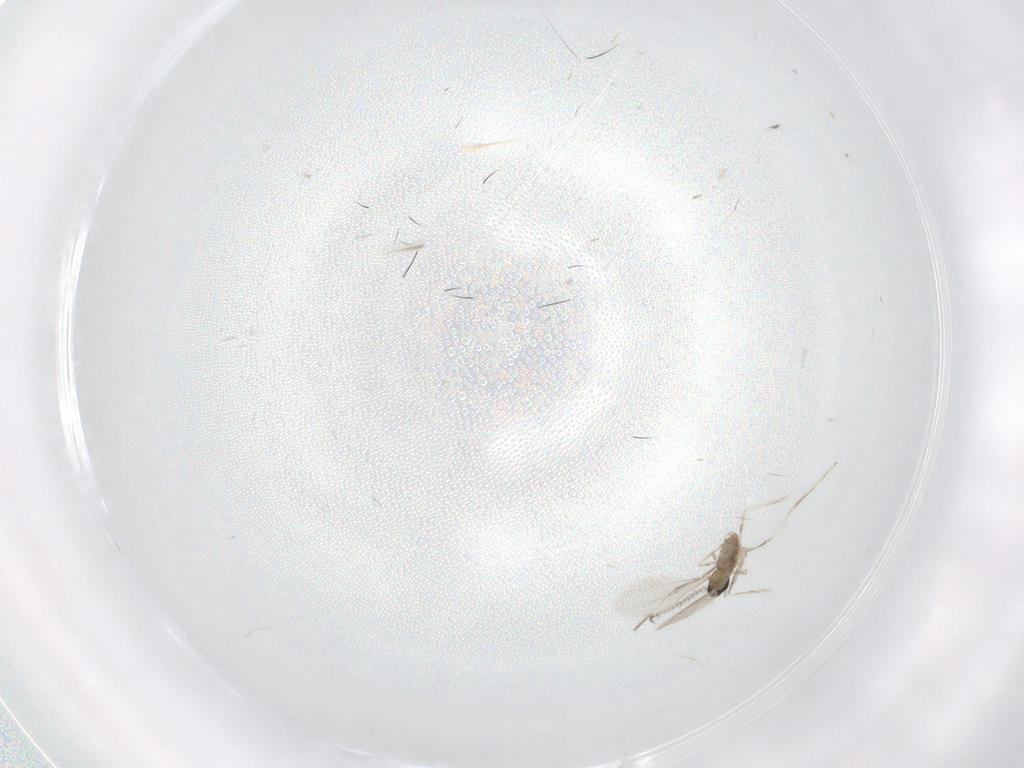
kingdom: Animalia
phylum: Arthropoda
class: Insecta
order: Diptera
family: Cecidomyiidae
